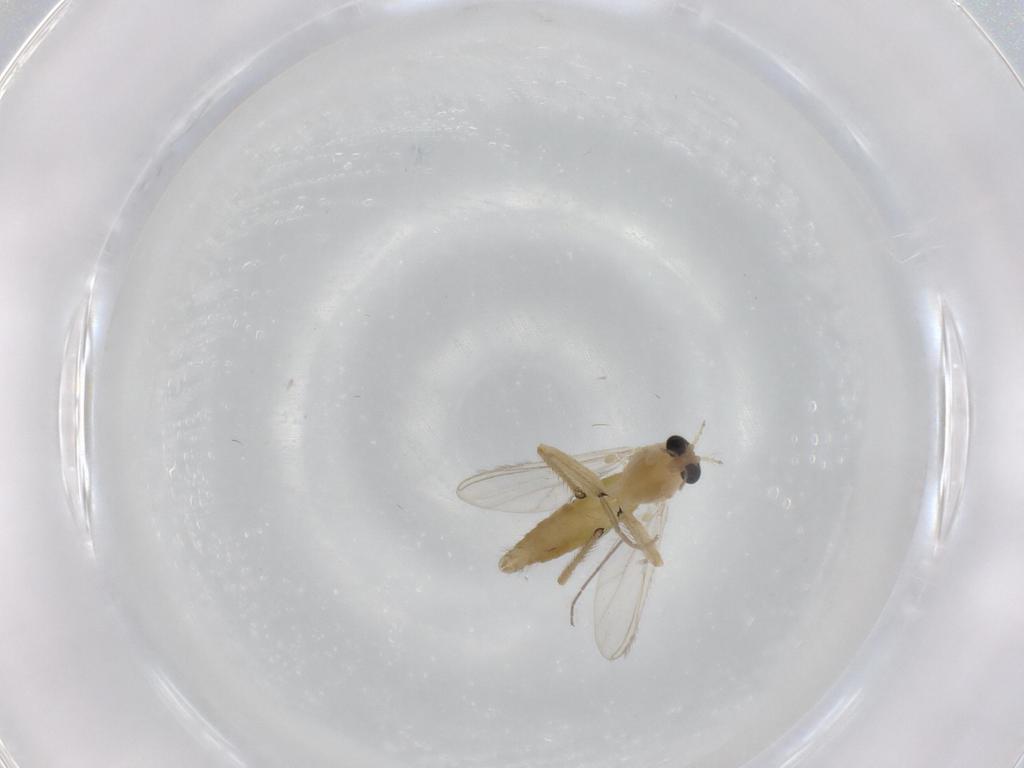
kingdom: Animalia
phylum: Arthropoda
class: Insecta
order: Diptera
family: Chironomidae
